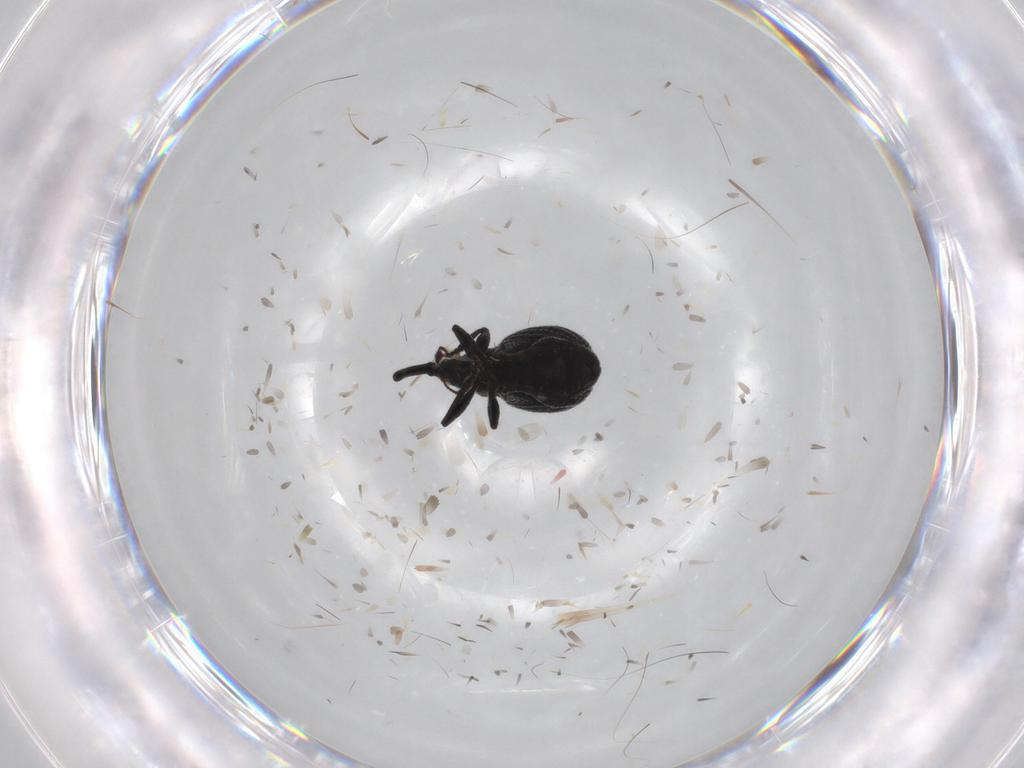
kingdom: Animalia
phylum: Arthropoda
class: Insecta
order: Coleoptera
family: Brentidae
